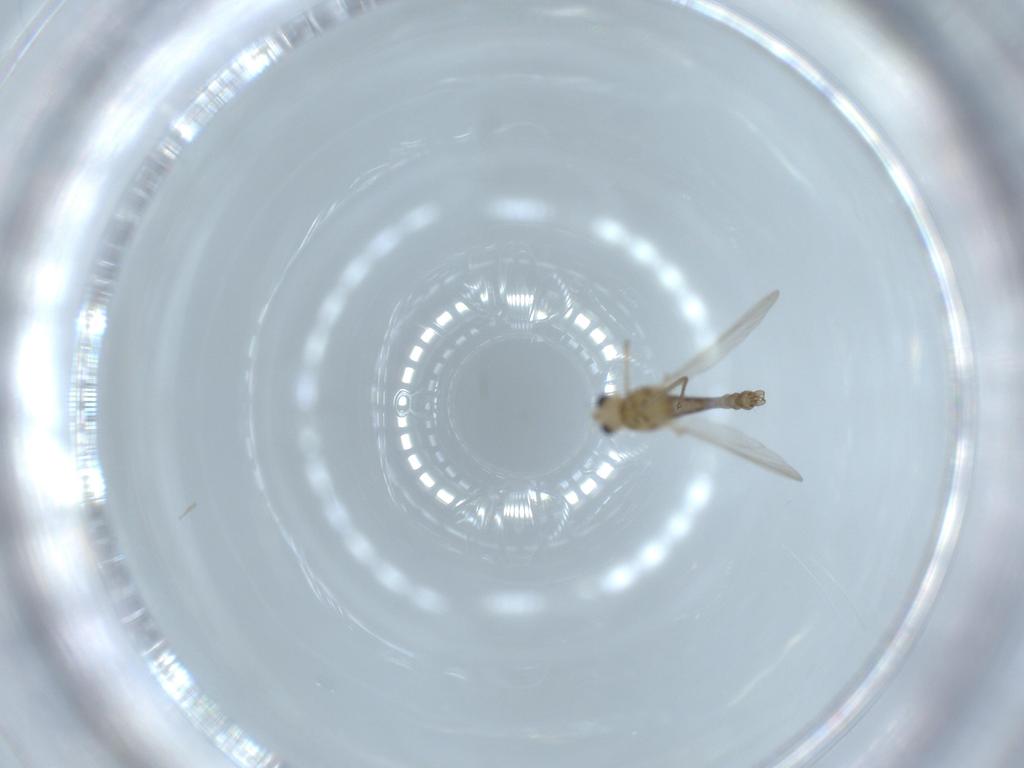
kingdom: Animalia
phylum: Arthropoda
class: Insecta
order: Diptera
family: Chironomidae
